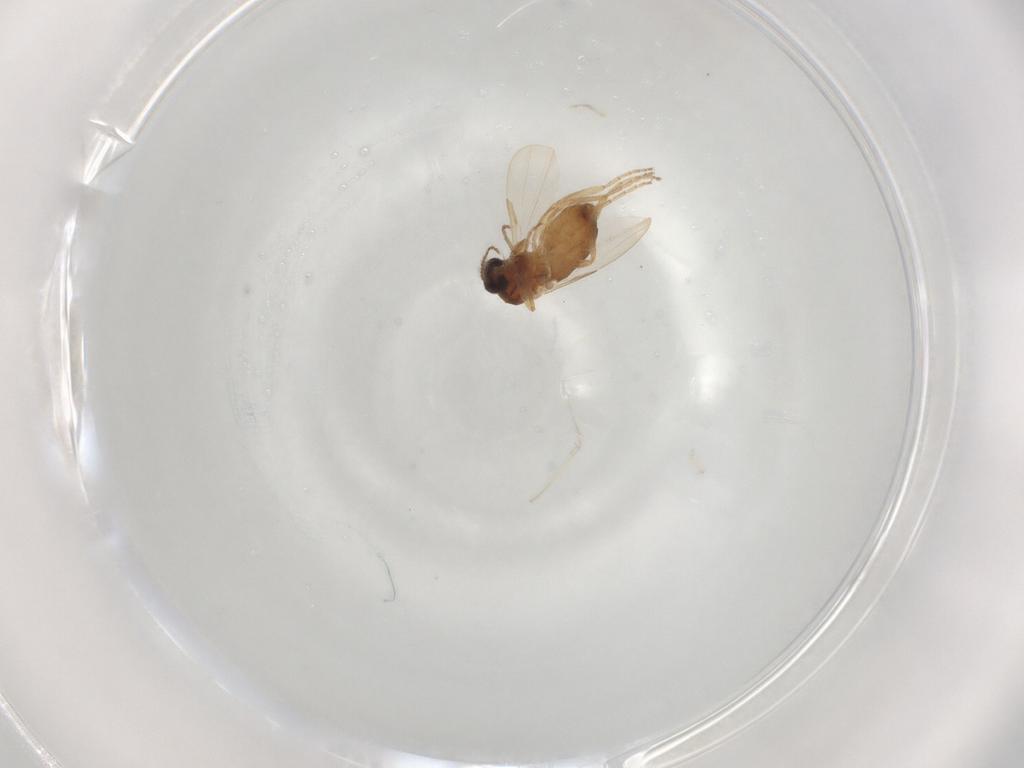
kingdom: Animalia
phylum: Arthropoda
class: Insecta
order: Diptera
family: Ceratopogonidae
